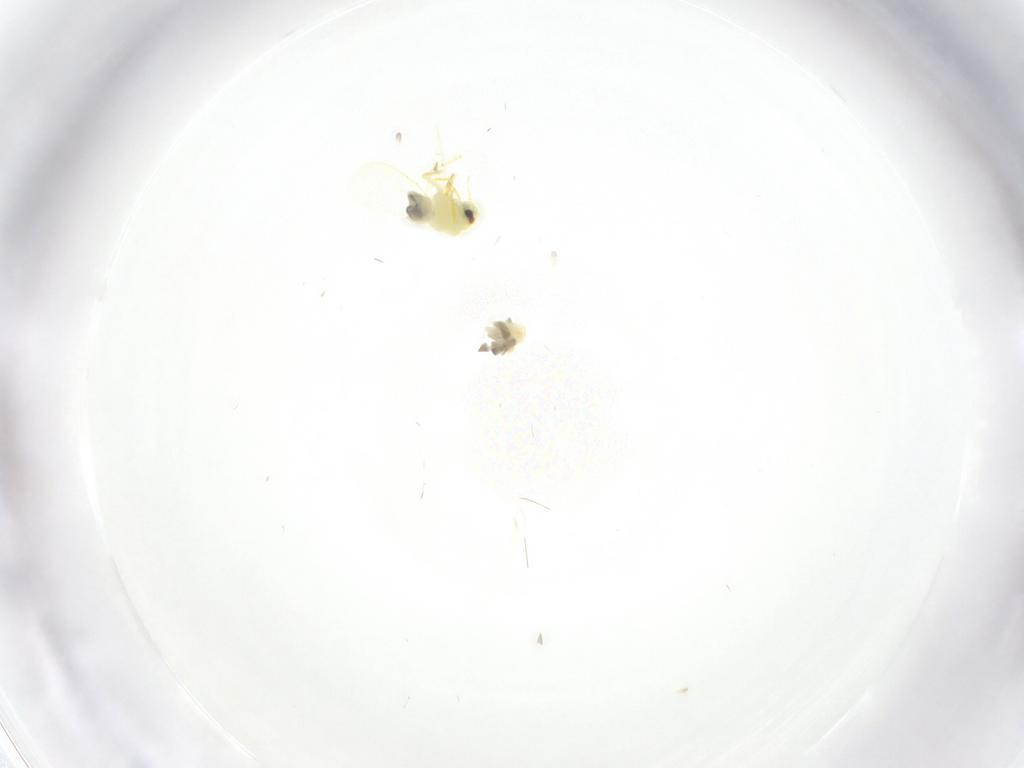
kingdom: Animalia
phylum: Arthropoda
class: Insecta
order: Hemiptera
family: Aleyrodidae
